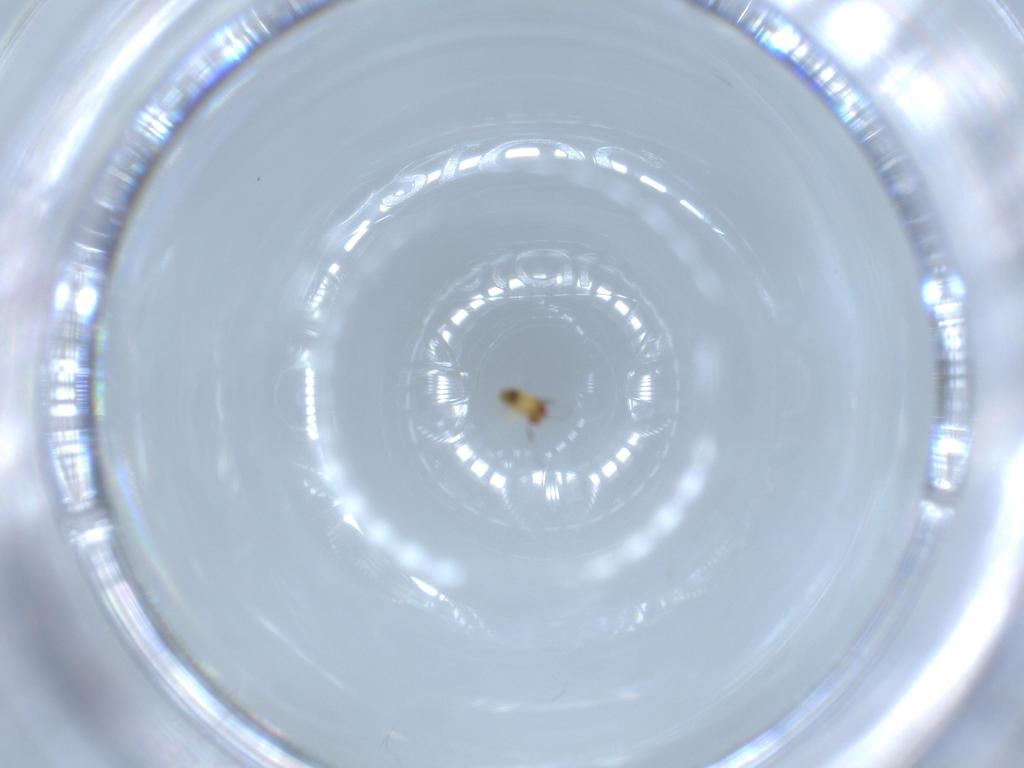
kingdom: Animalia
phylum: Arthropoda
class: Insecta
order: Hymenoptera
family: Trichogrammatidae
